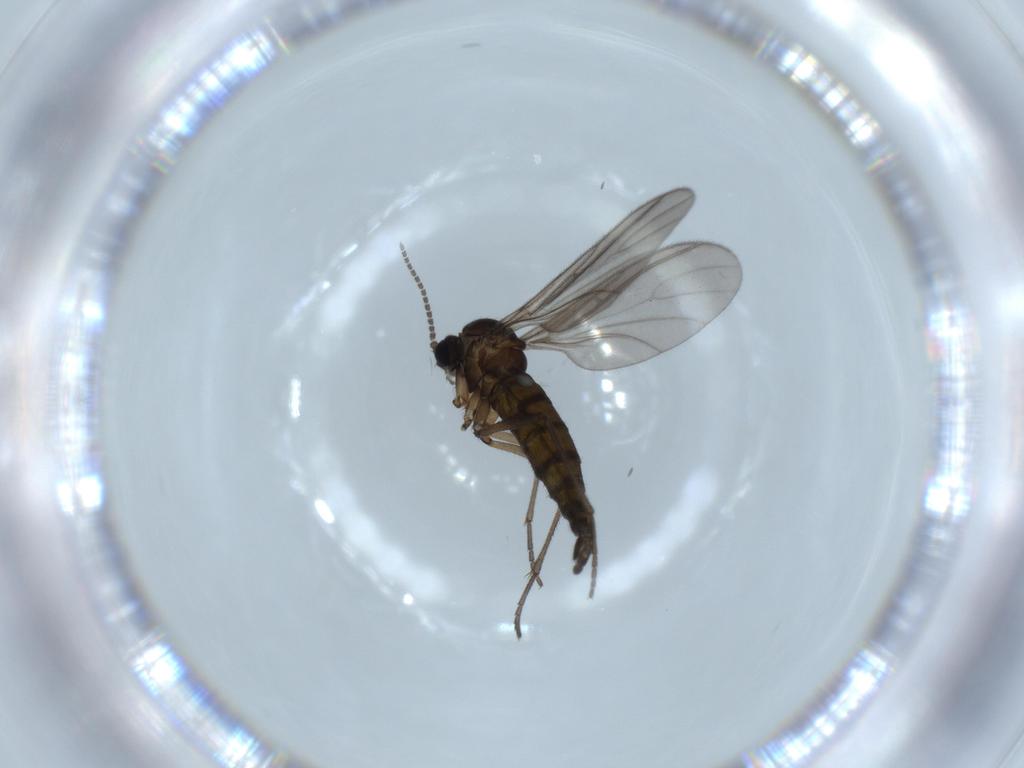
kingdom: Animalia
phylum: Arthropoda
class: Insecta
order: Diptera
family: Sciaridae
